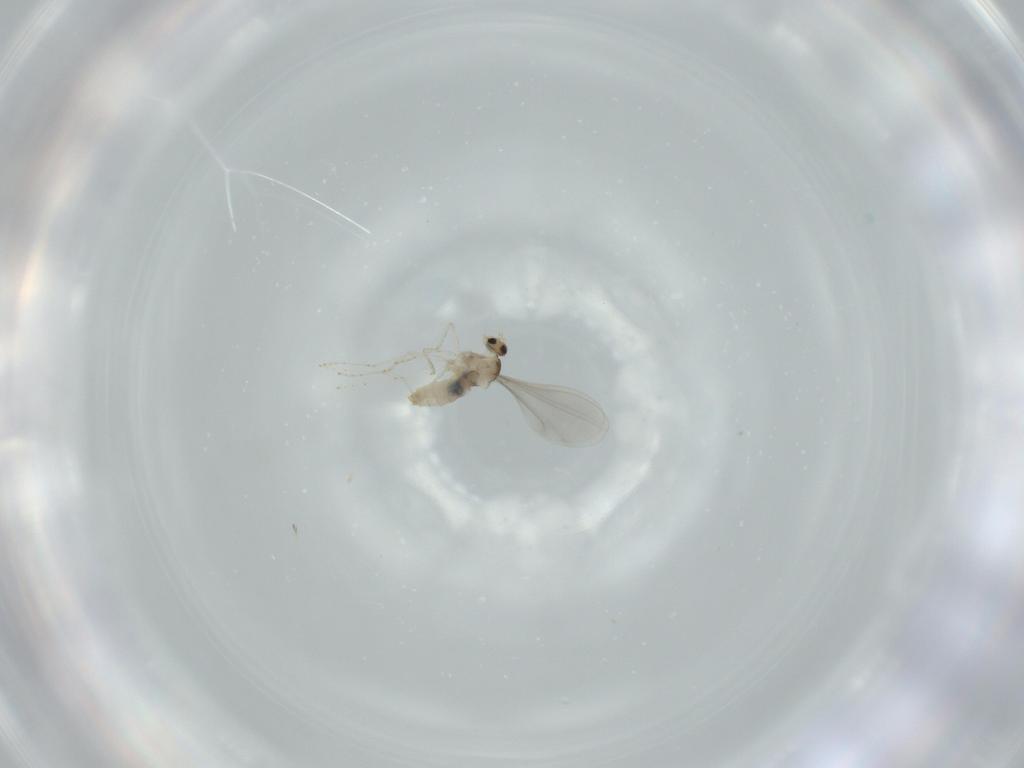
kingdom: Animalia
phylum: Arthropoda
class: Insecta
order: Diptera
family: Cecidomyiidae
